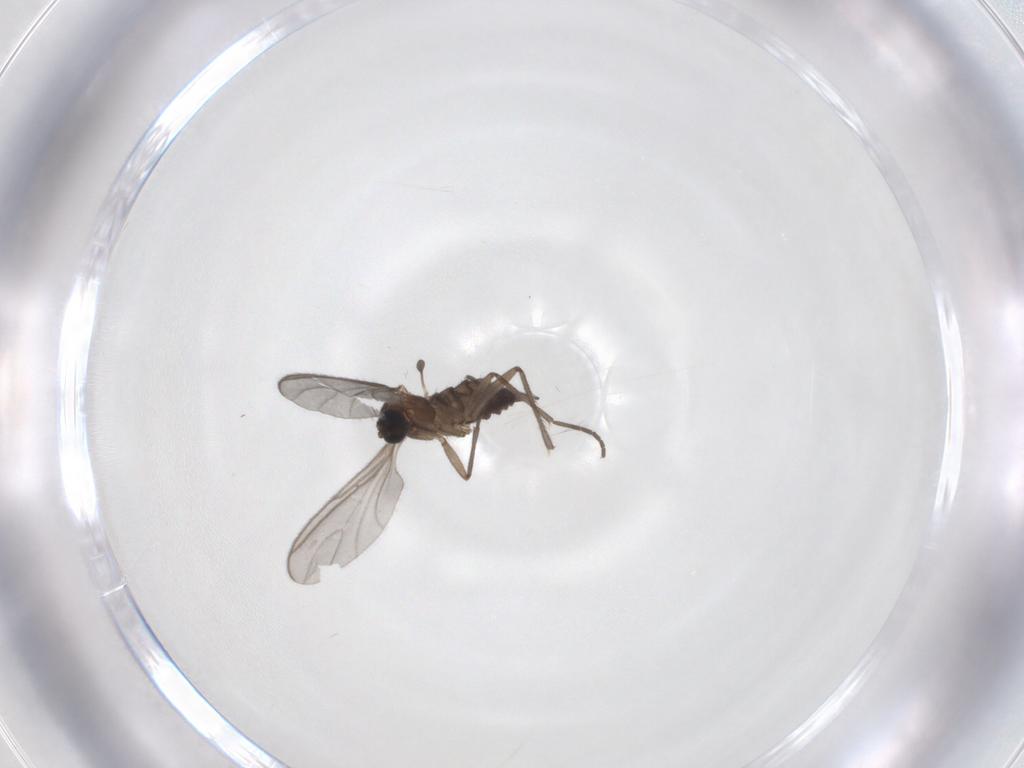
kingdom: Animalia
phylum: Arthropoda
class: Insecta
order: Diptera
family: Sciaridae
